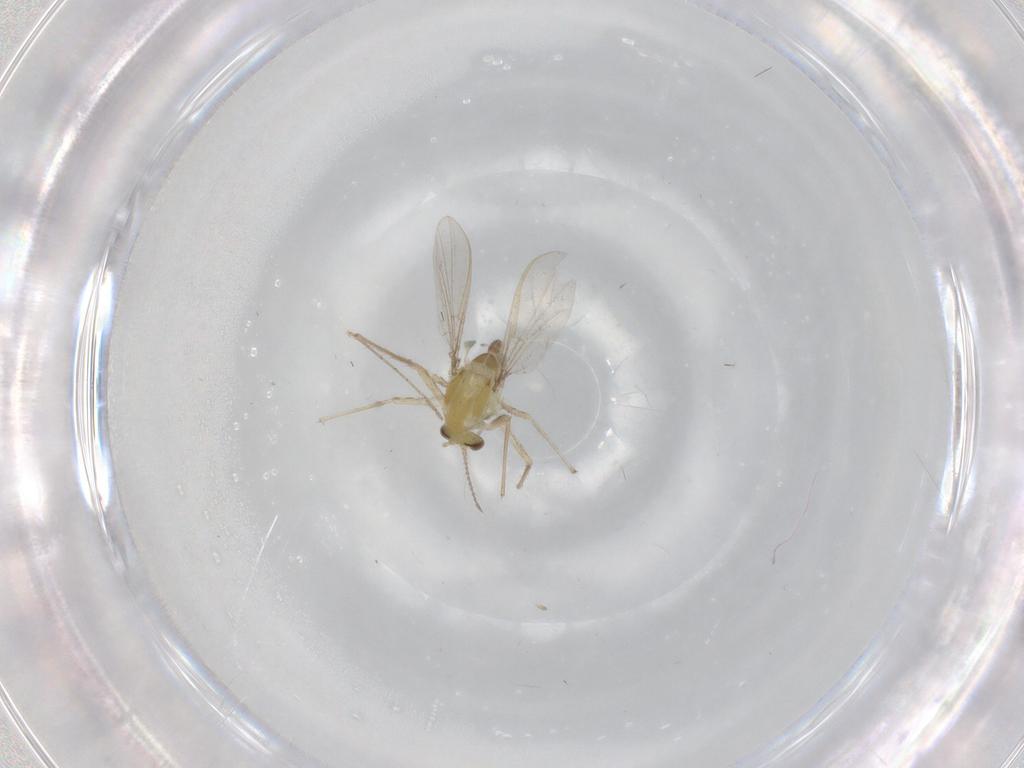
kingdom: Animalia
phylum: Arthropoda
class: Insecta
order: Diptera
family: Chironomidae
